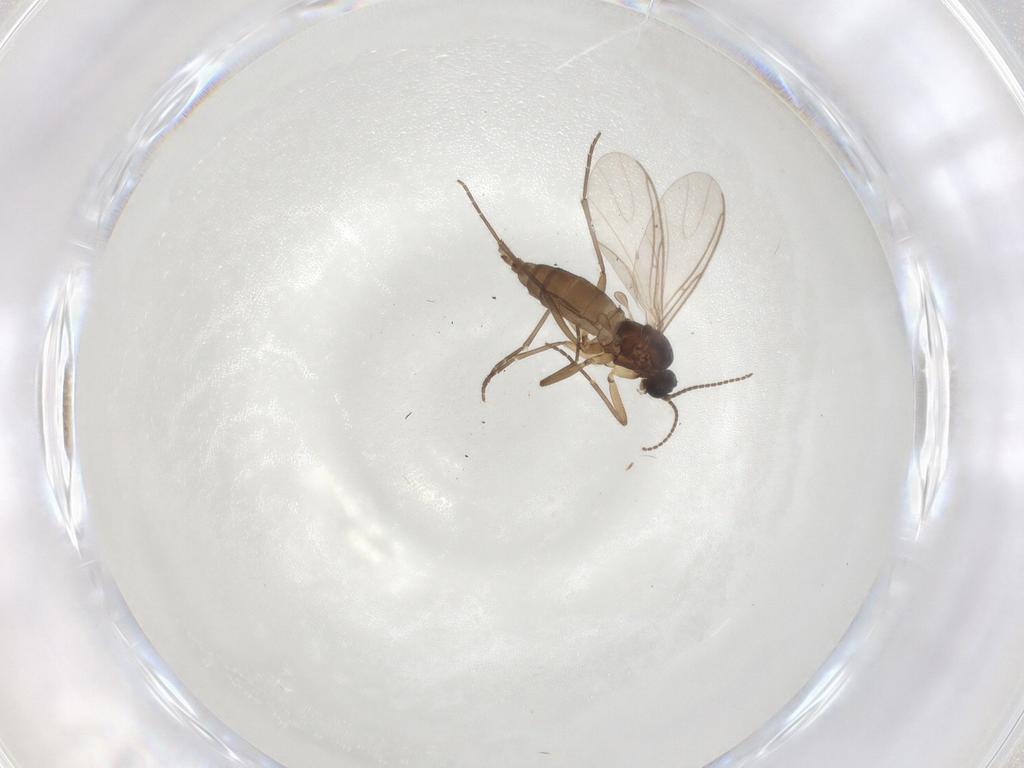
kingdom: Animalia
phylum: Arthropoda
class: Insecta
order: Diptera
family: Sciaridae
